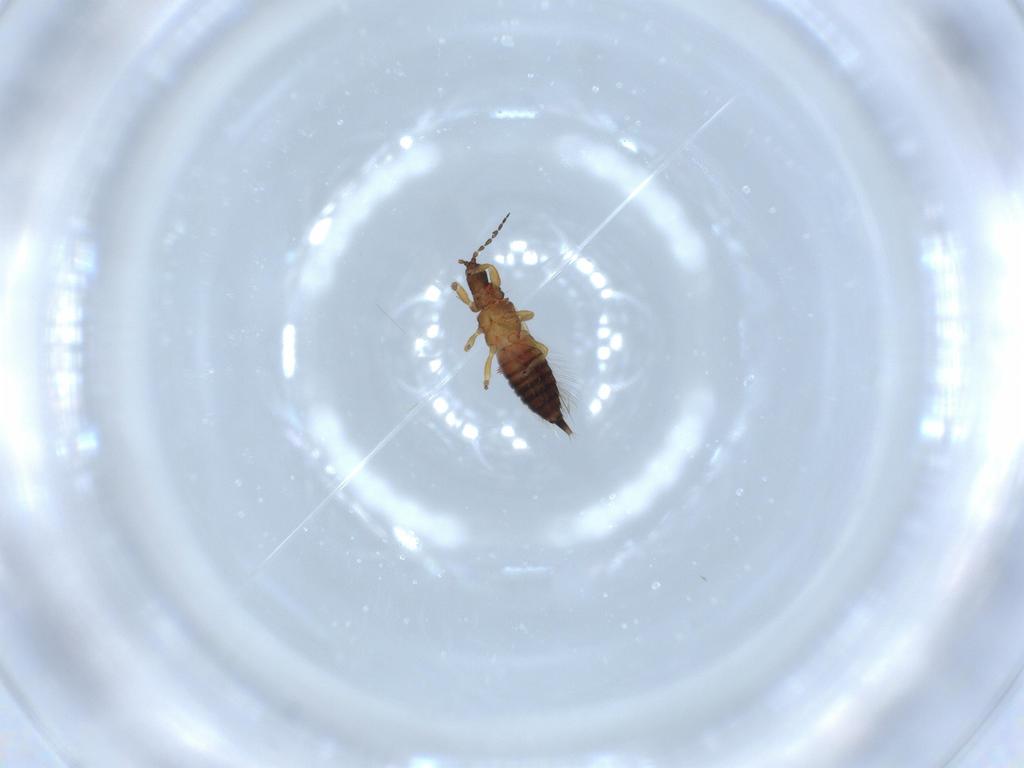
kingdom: Animalia
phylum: Arthropoda
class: Insecta
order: Thysanoptera
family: Phlaeothripidae
